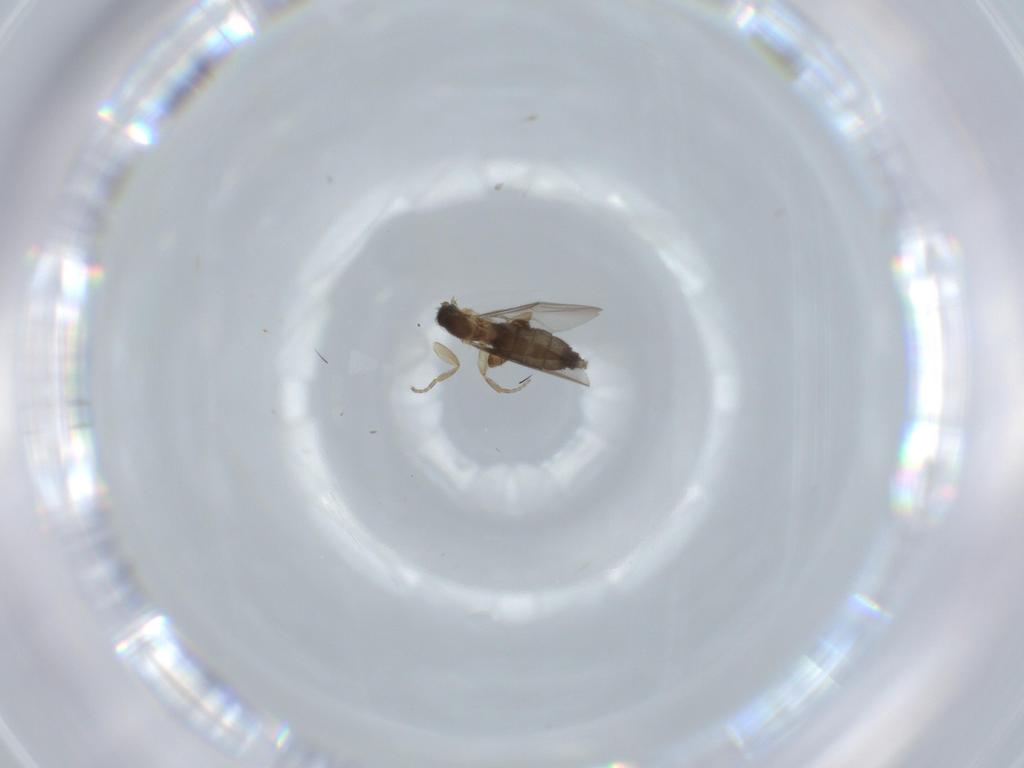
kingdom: Animalia
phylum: Arthropoda
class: Insecta
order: Diptera
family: Phoridae
